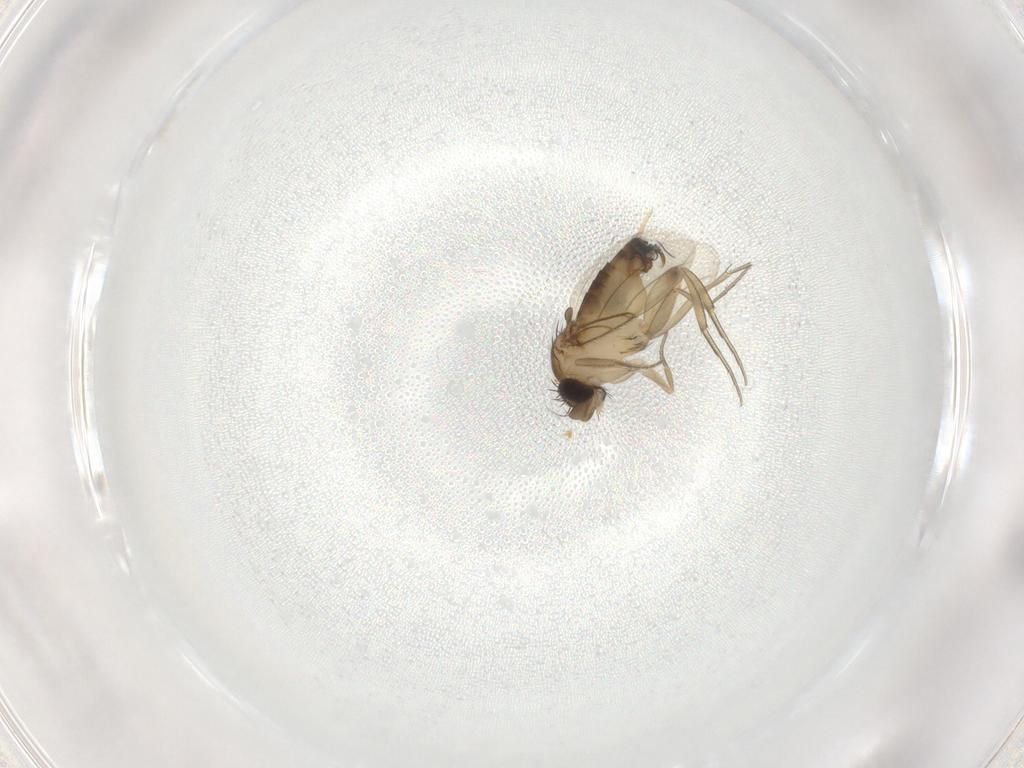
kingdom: Animalia
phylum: Arthropoda
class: Insecta
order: Diptera
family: Phoridae
